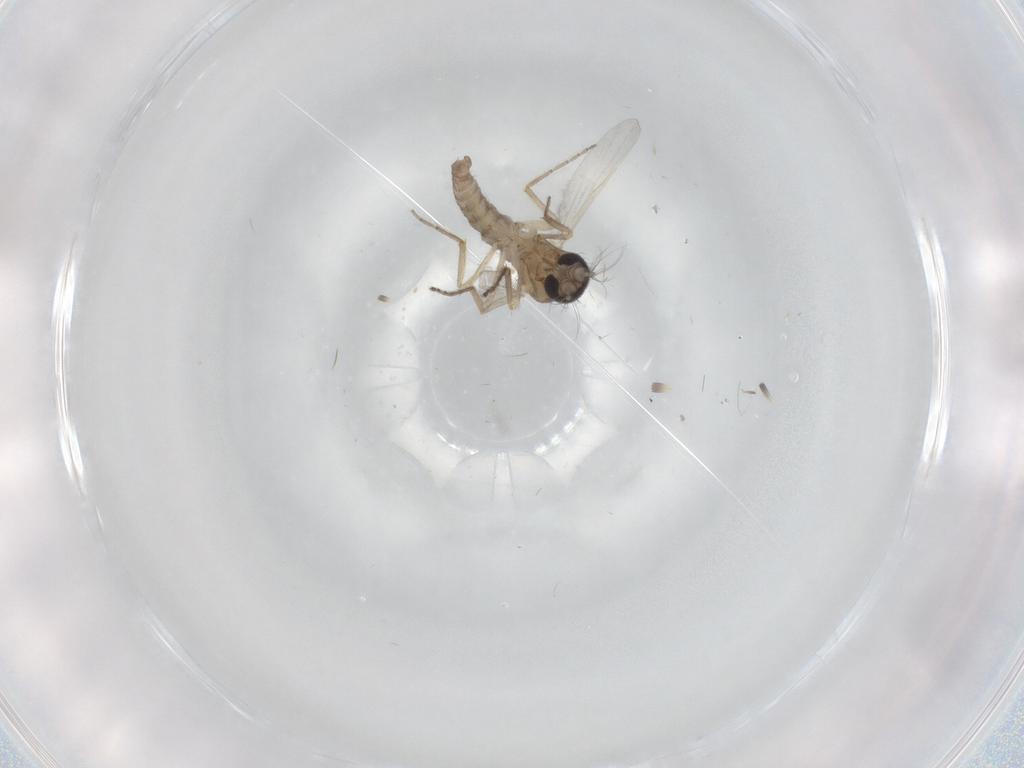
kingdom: Animalia
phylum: Arthropoda
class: Insecta
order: Diptera
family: Ceratopogonidae
